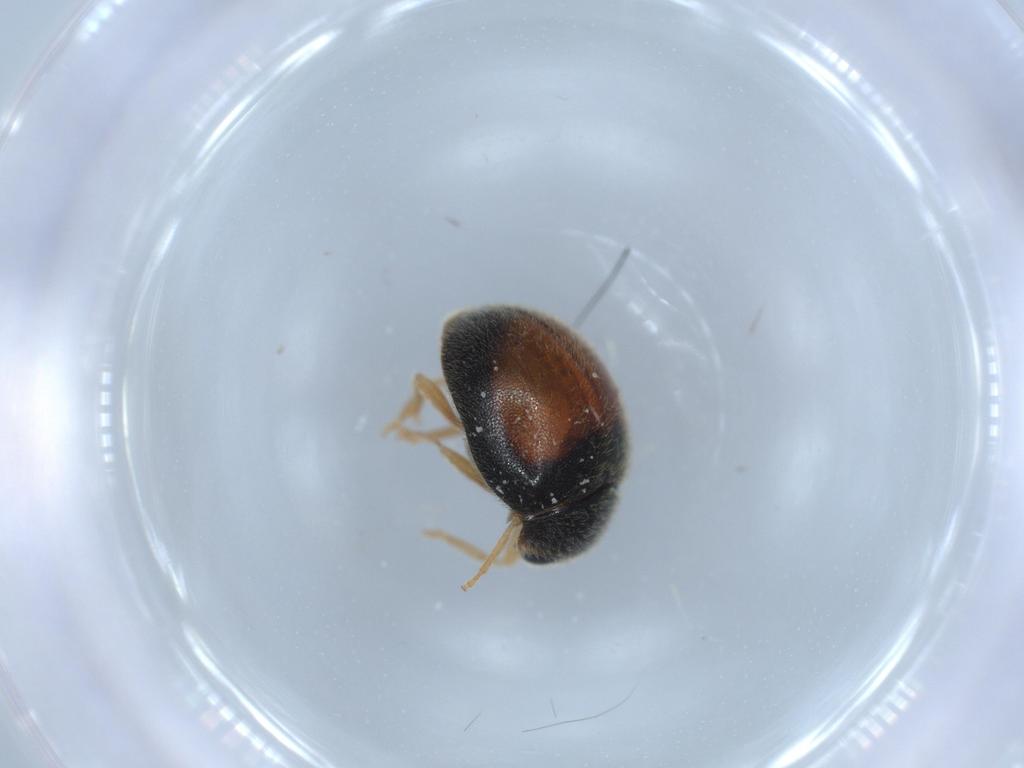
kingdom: Animalia
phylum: Arthropoda
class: Insecta
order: Coleoptera
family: Coccinellidae
